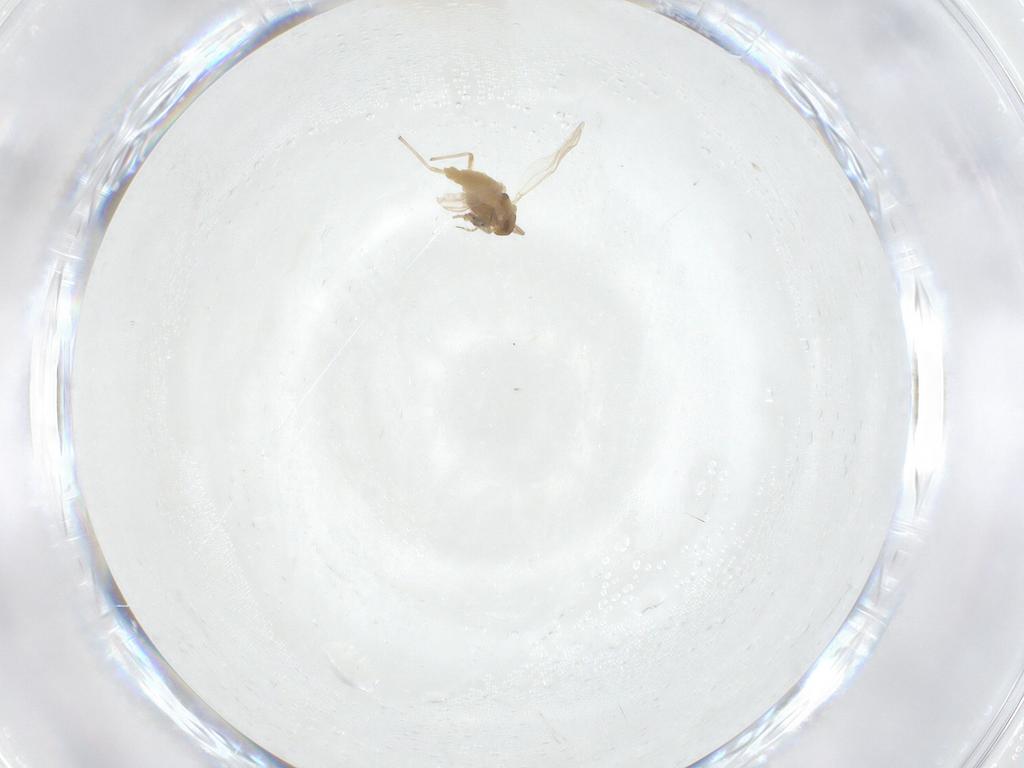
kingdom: Animalia
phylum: Arthropoda
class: Insecta
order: Diptera
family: Chironomidae
